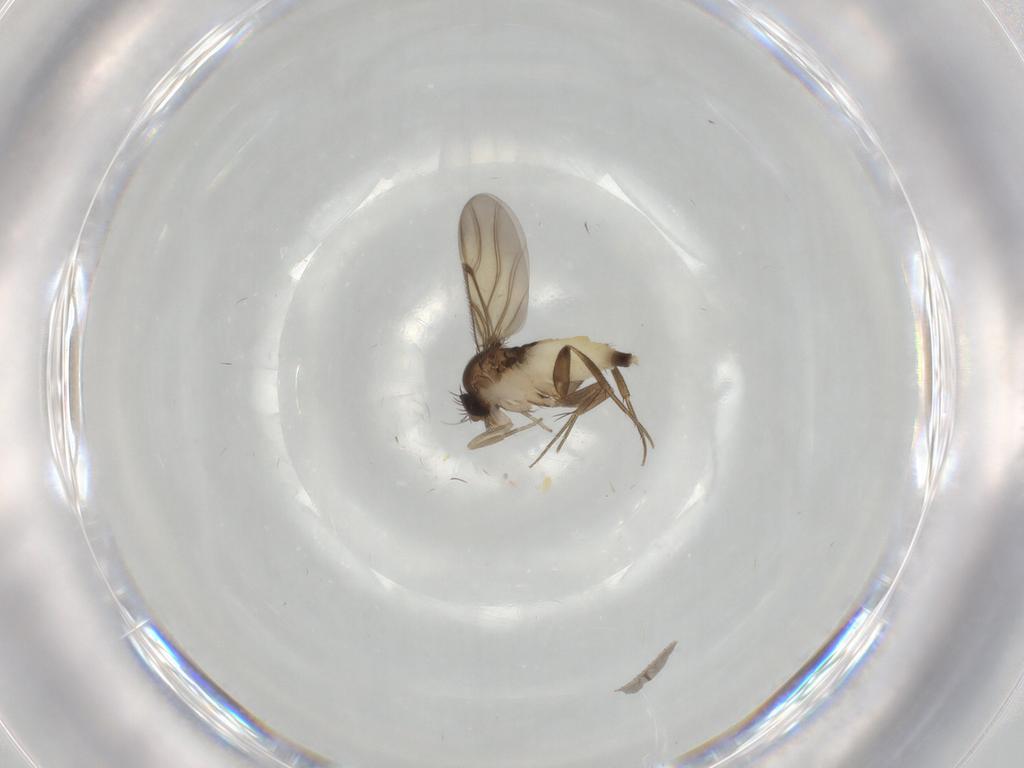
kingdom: Animalia
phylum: Arthropoda
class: Insecta
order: Diptera
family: Phoridae
